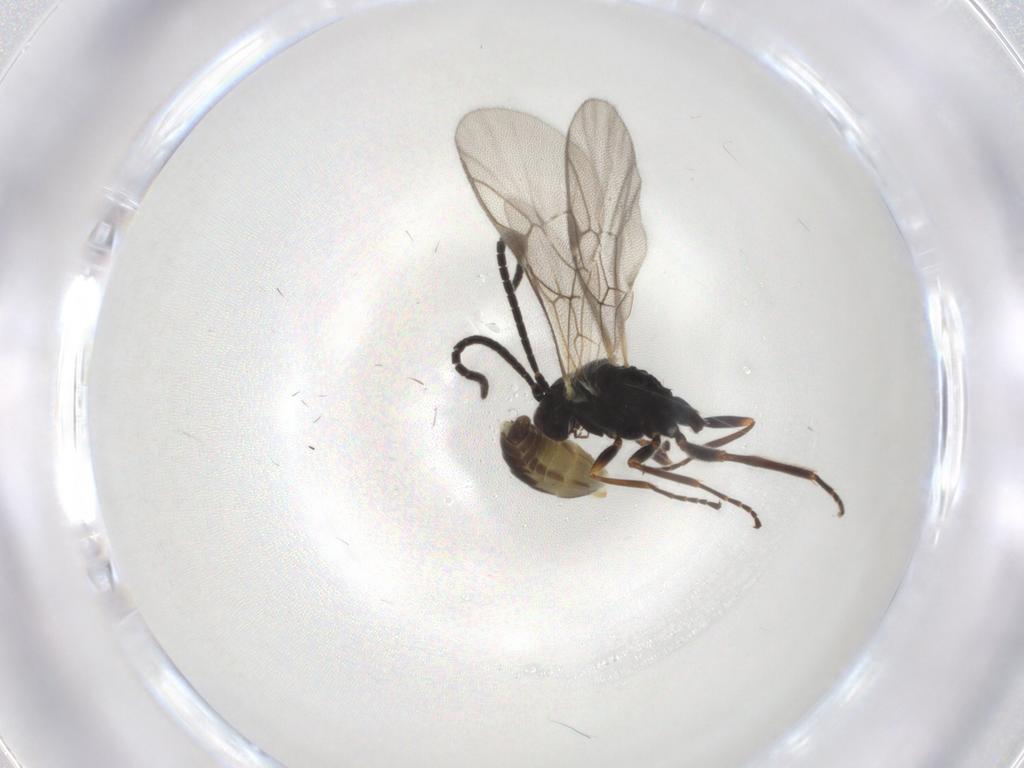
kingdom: Animalia
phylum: Arthropoda
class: Insecta
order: Hymenoptera
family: Ichneumonidae
